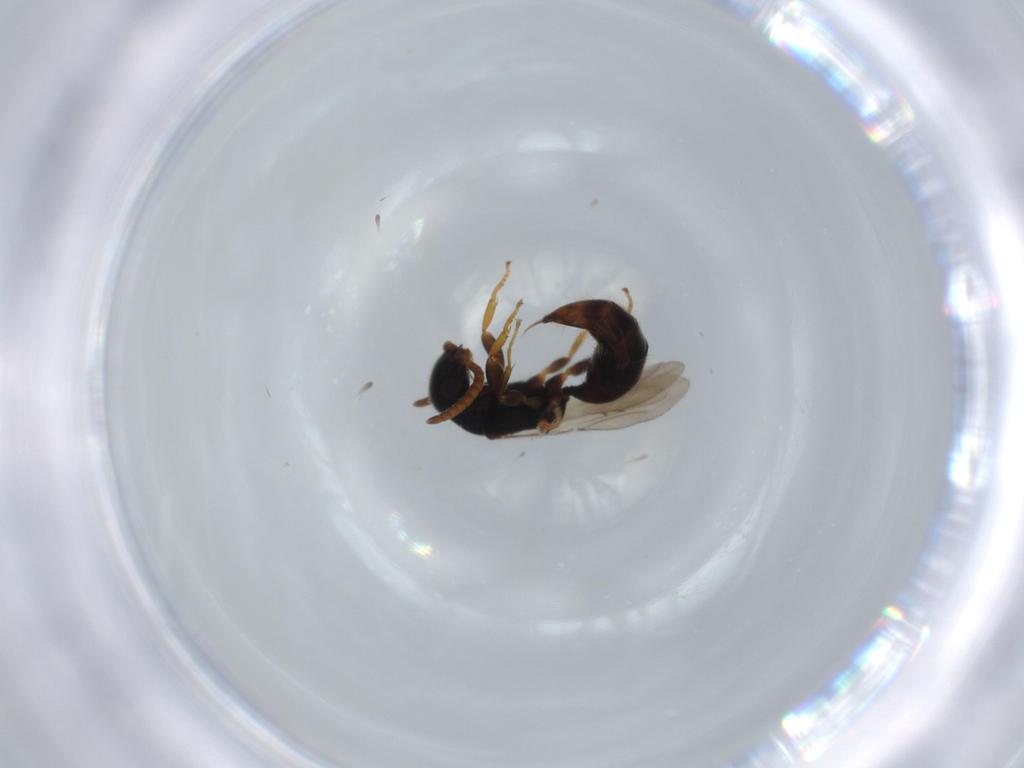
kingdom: Animalia
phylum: Arthropoda
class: Insecta
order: Hymenoptera
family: Bethylidae
